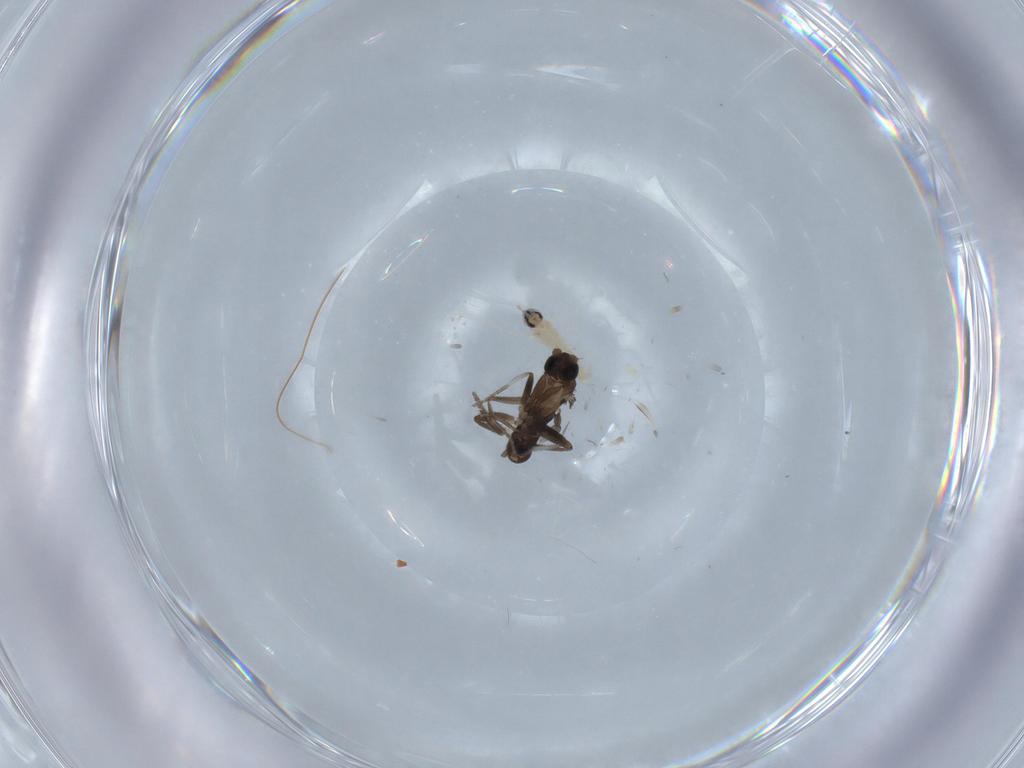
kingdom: Animalia
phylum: Arthropoda
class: Insecta
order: Diptera
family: Cecidomyiidae
